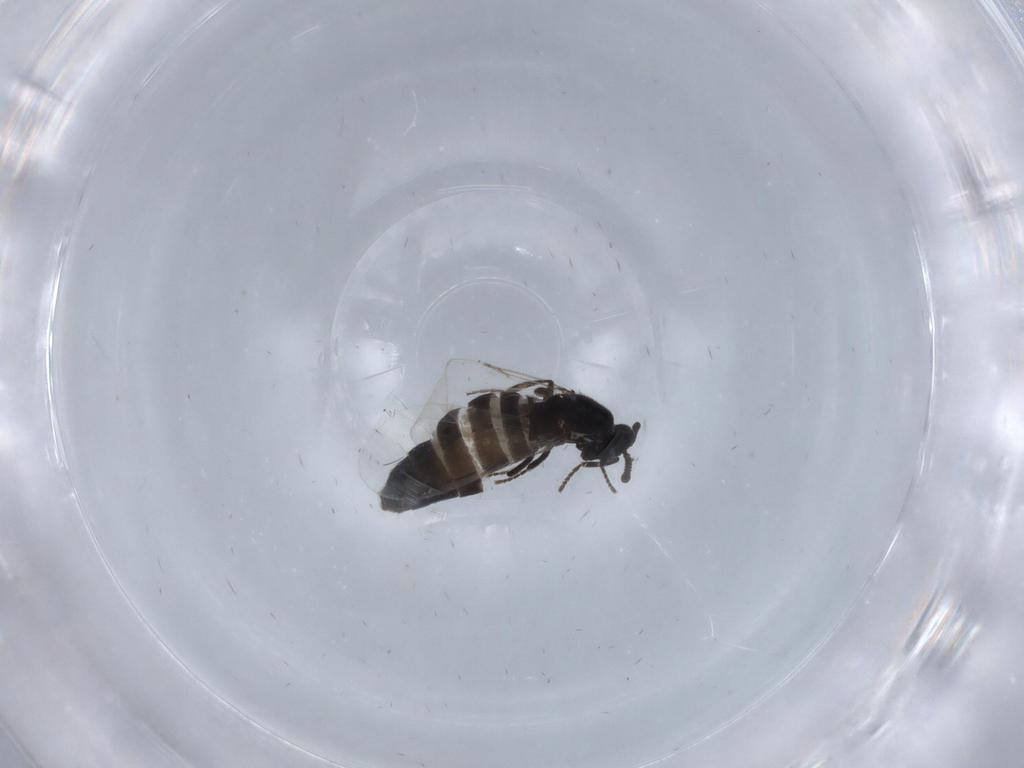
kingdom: Animalia
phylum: Arthropoda
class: Insecta
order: Diptera
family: Scatopsidae
